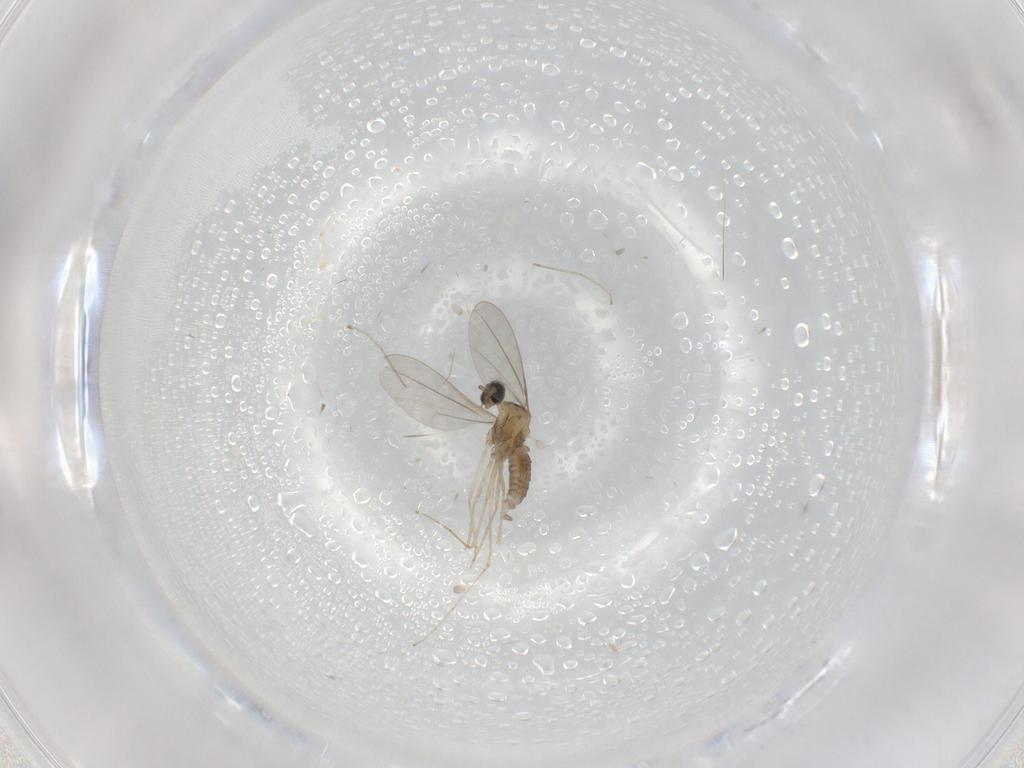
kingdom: Animalia
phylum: Arthropoda
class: Insecta
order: Diptera
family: Cecidomyiidae
